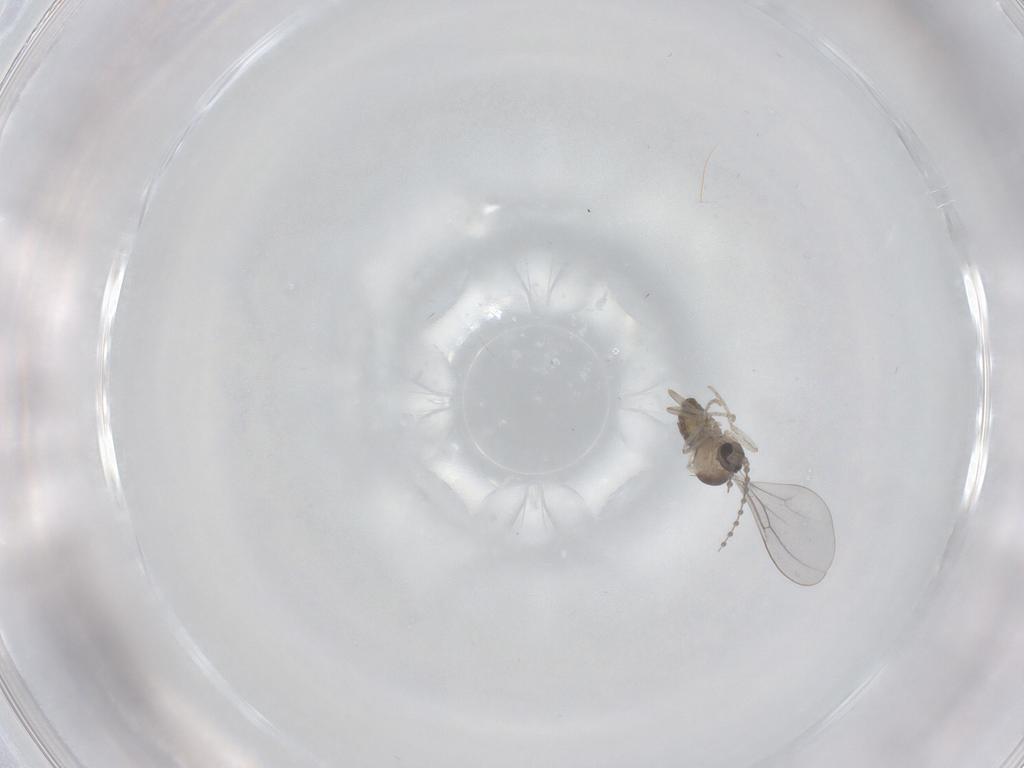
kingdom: Animalia
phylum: Arthropoda
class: Insecta
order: Diptera
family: Cecidomyiidae
